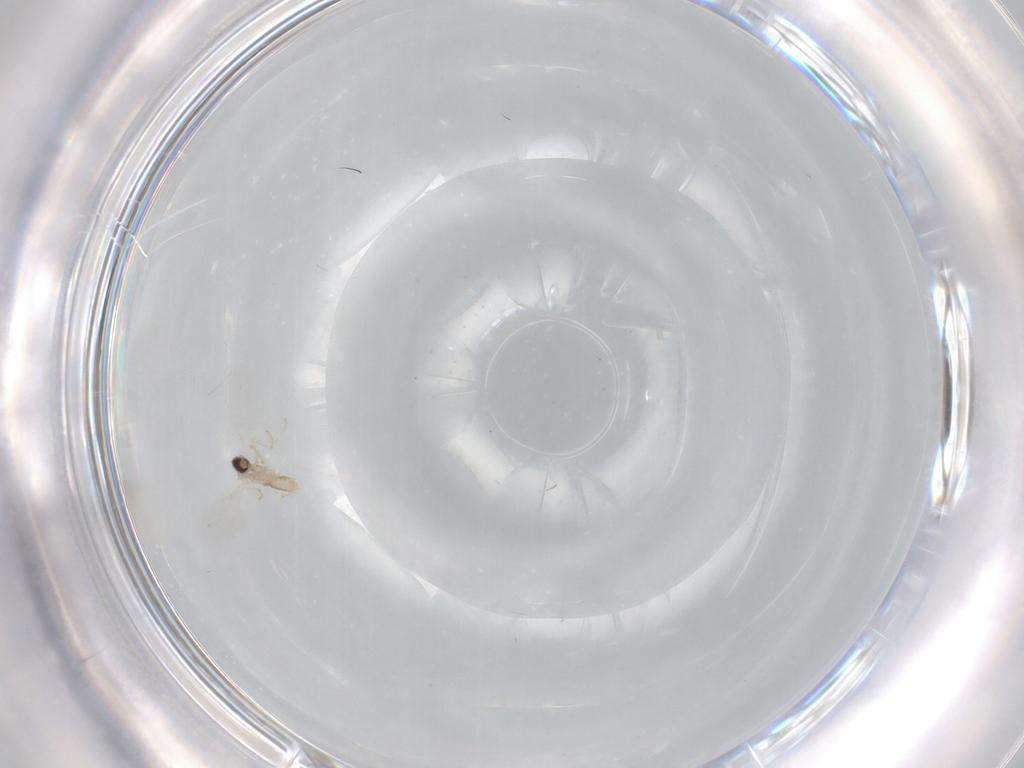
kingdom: Animalia
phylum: Arthropoda
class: Insecta
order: Diptera
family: Cecidomyiidae
